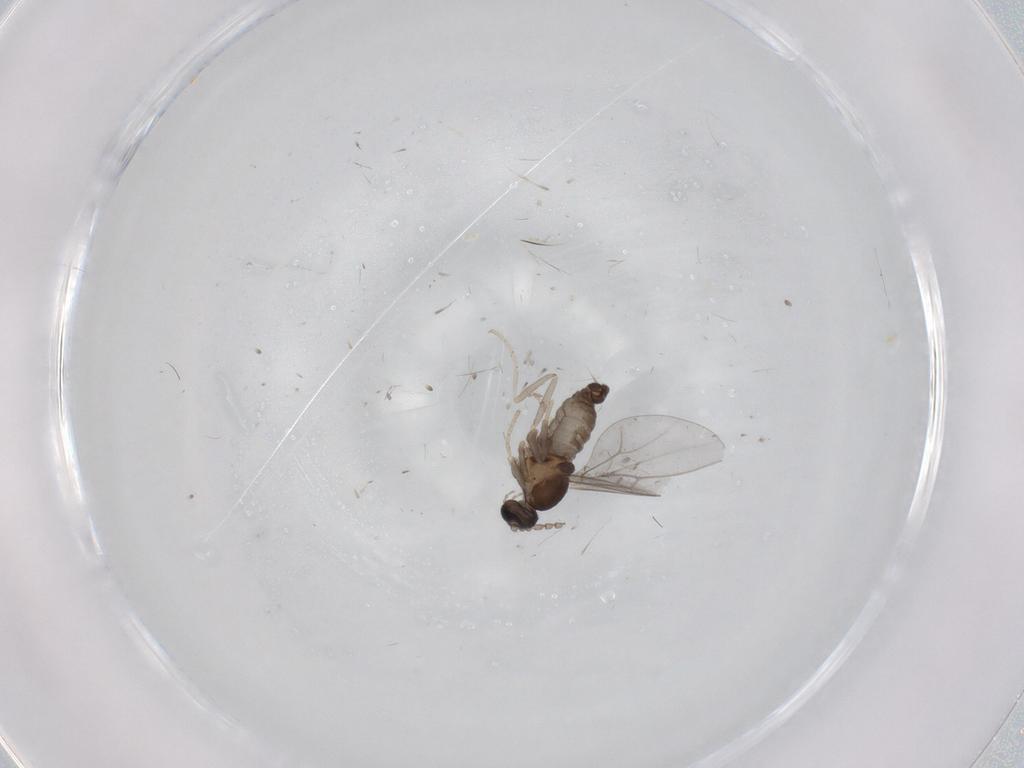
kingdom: Animalia
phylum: Arthropoda
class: Insecta
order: Diptera
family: Cecidomyiidae
